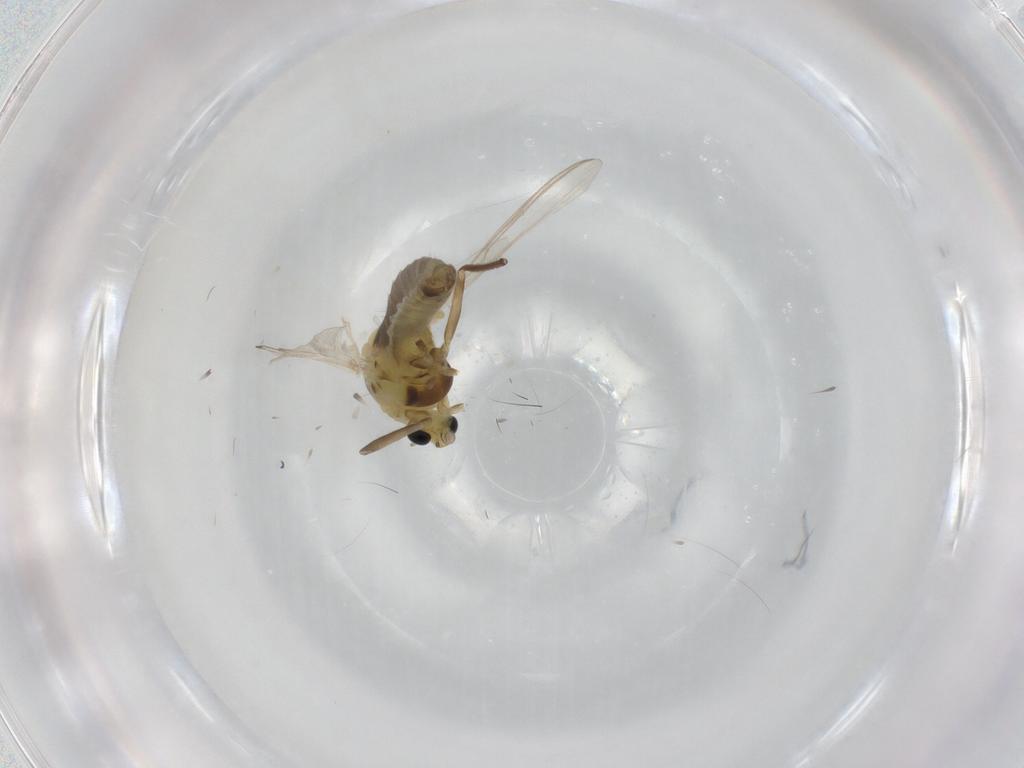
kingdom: Animalia
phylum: Arthropoda
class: Insecta
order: Diptera
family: Chironomidae
